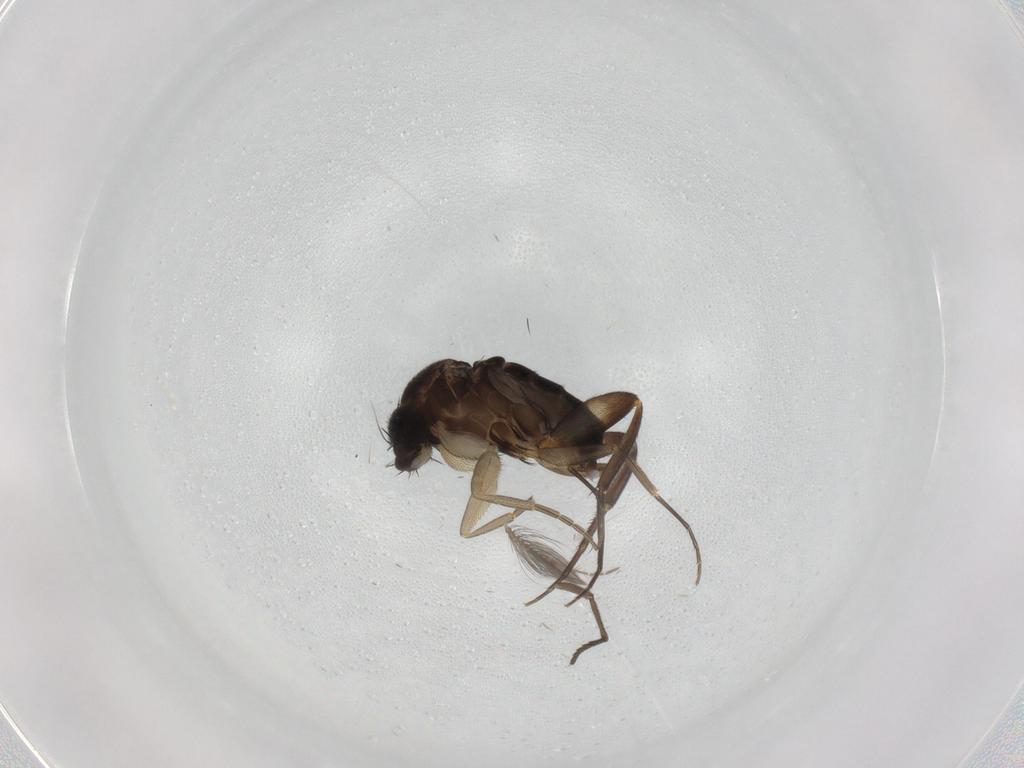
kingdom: Animalia
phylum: Arthropoda
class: Insecta
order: Diptera
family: Phoridae
